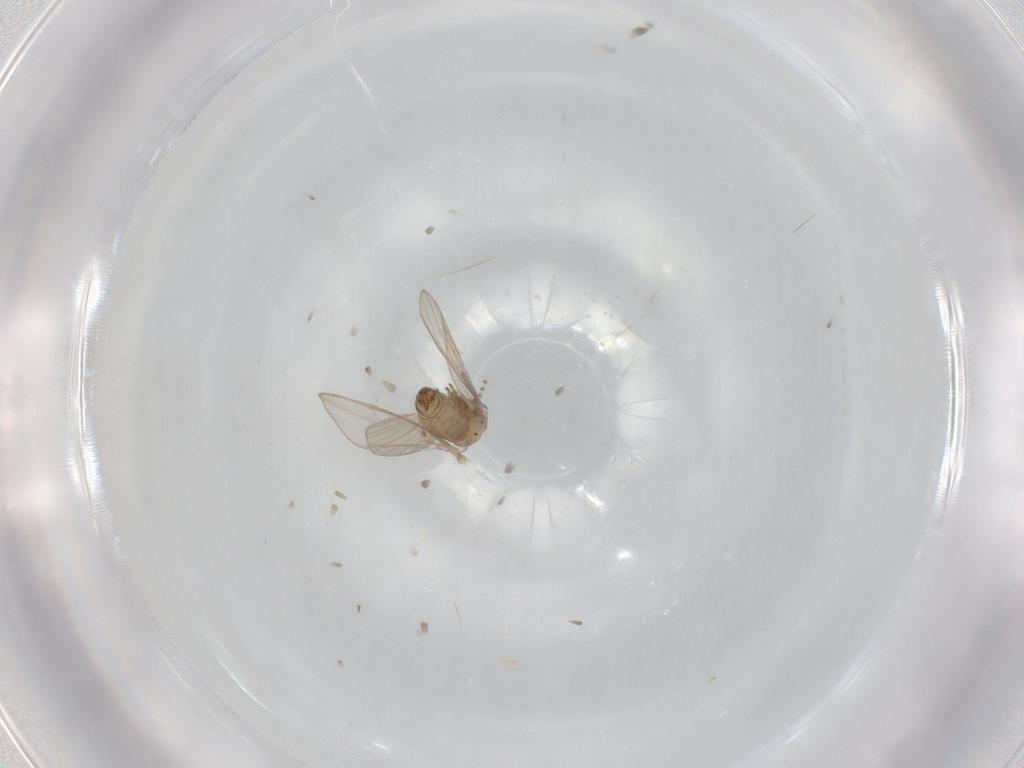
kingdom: Animalia
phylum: Arthropoda
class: Insecta
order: Diptera
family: Psychodidae
